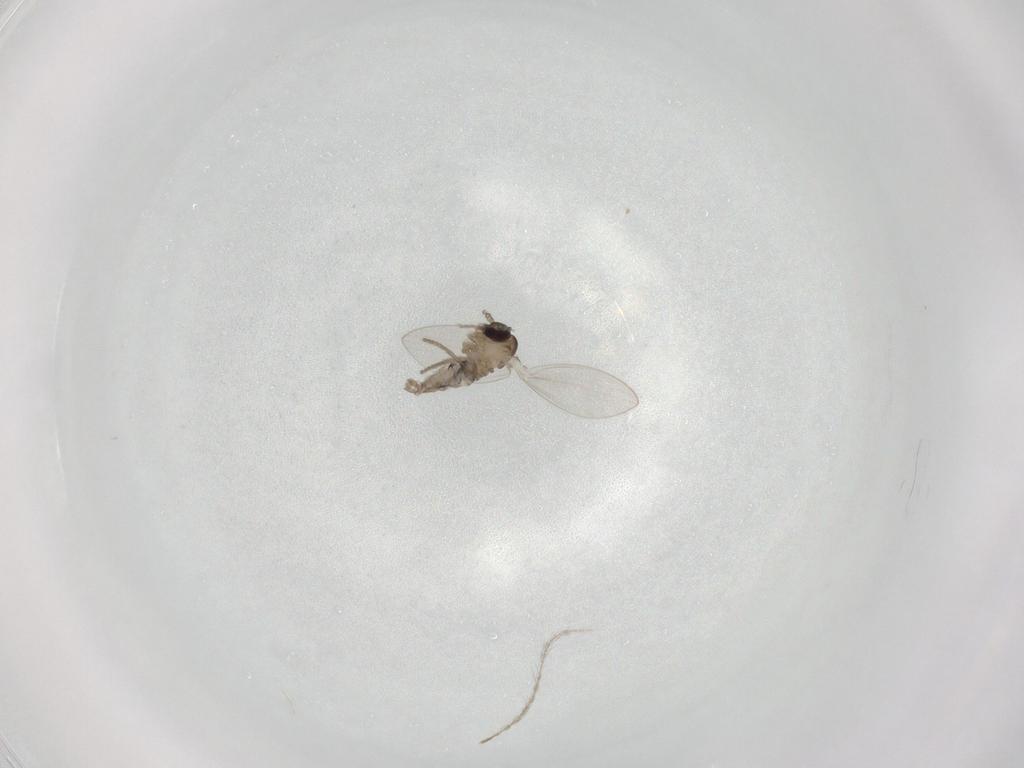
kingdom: Animalia
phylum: Arthropoda
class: Insecta
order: Diptera
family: Psychodidae
